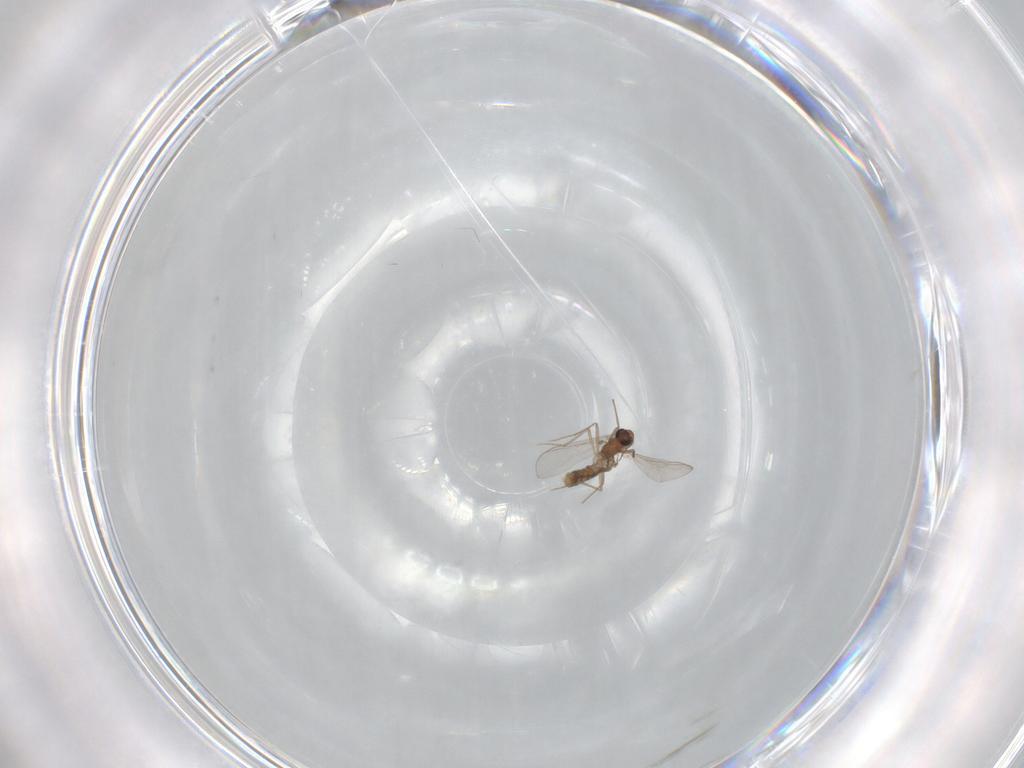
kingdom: Animalia
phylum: Arthropoda
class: Insecta
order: Diptera
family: Chironomidae
